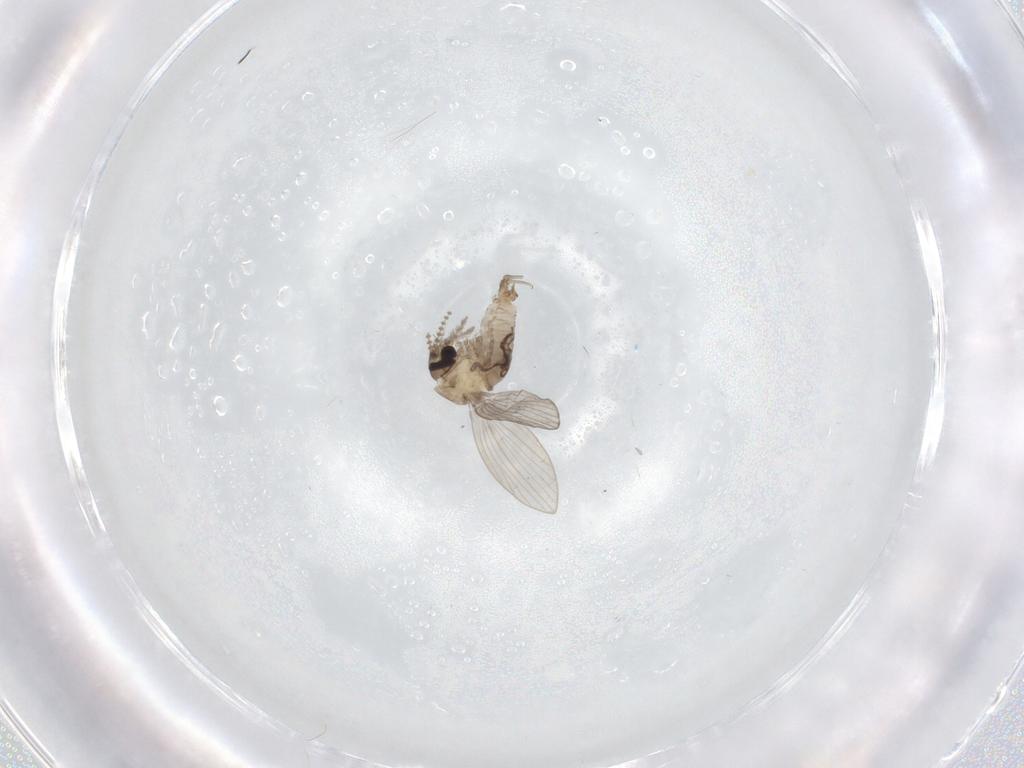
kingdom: Animalia
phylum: Arthropoda
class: Insecta
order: Diptera
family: Psychodidae
